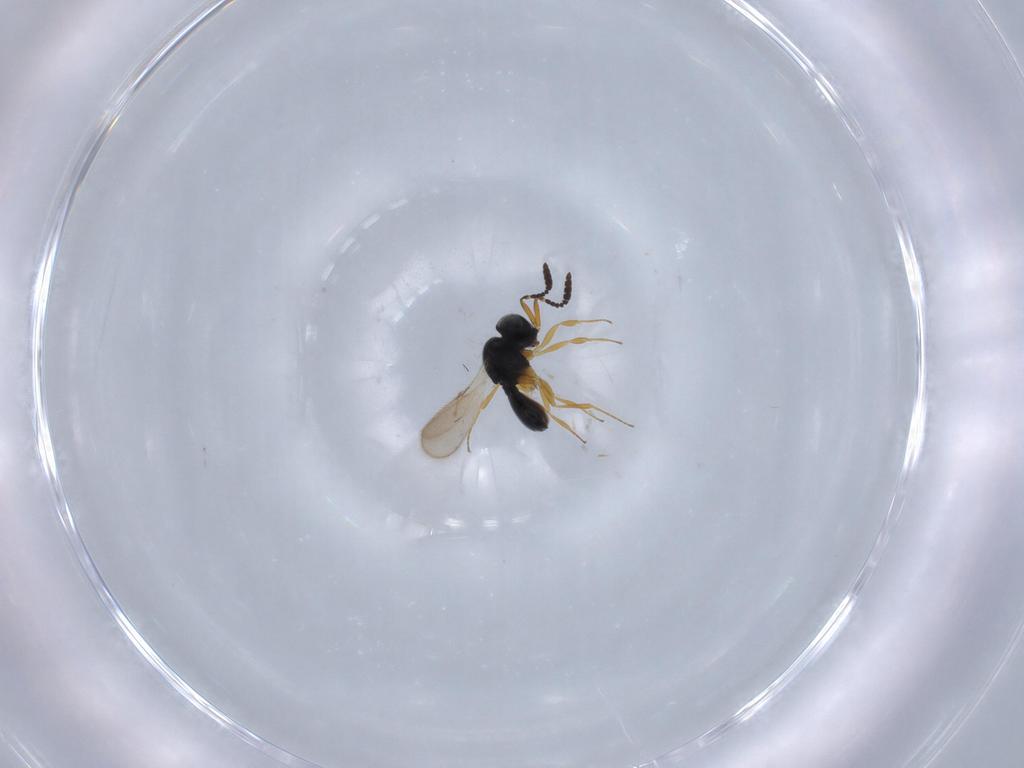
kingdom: Animalia
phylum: Arthropoda
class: Insecta
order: Hymenoptera
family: Scelionidae
